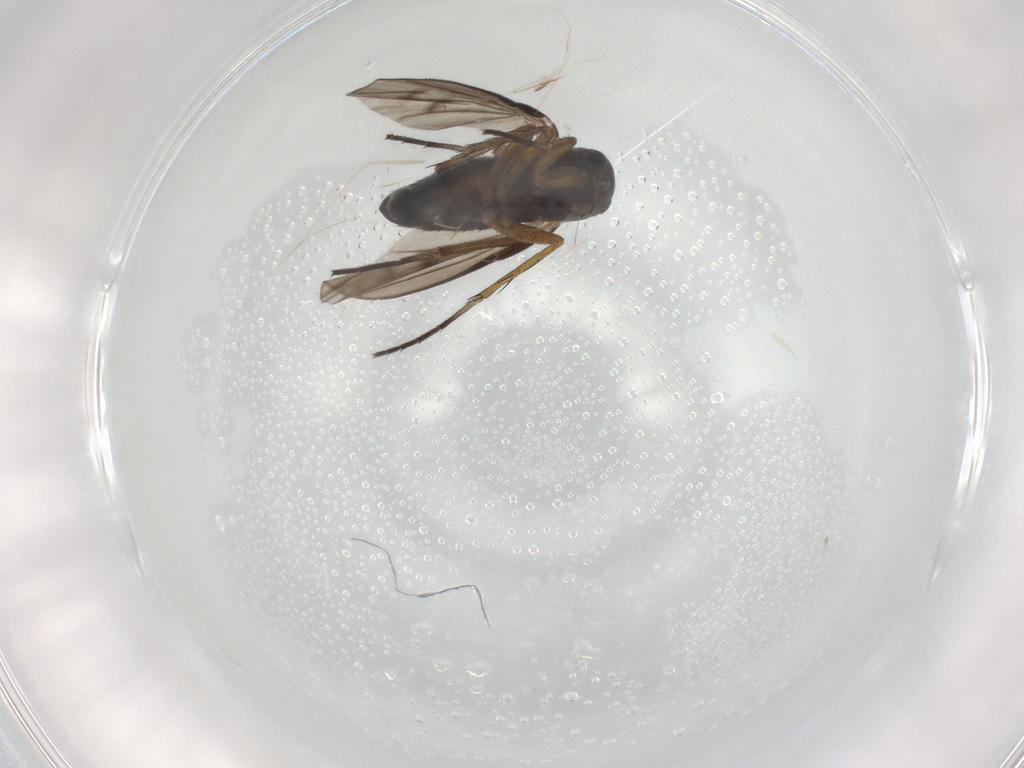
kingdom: Animalia
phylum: Arthropoda
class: Insecta
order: Diptera
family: Dolichopodidae
